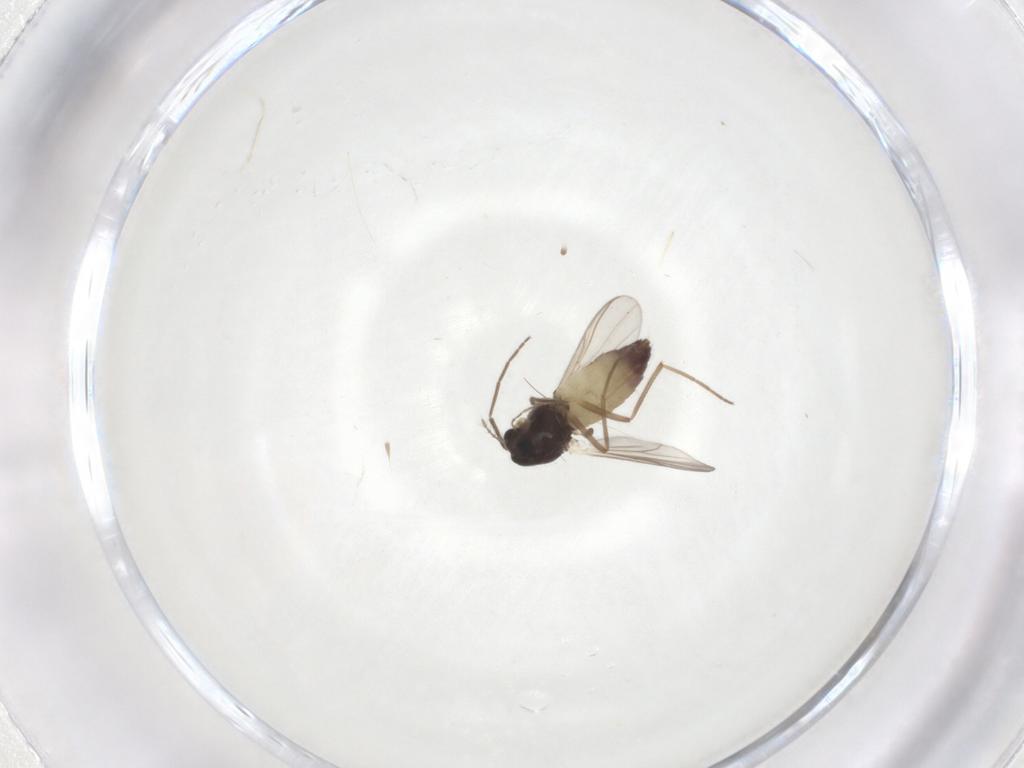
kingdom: Animalia
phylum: Arthropoda
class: Insecta
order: Diptera
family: Chironomidae
